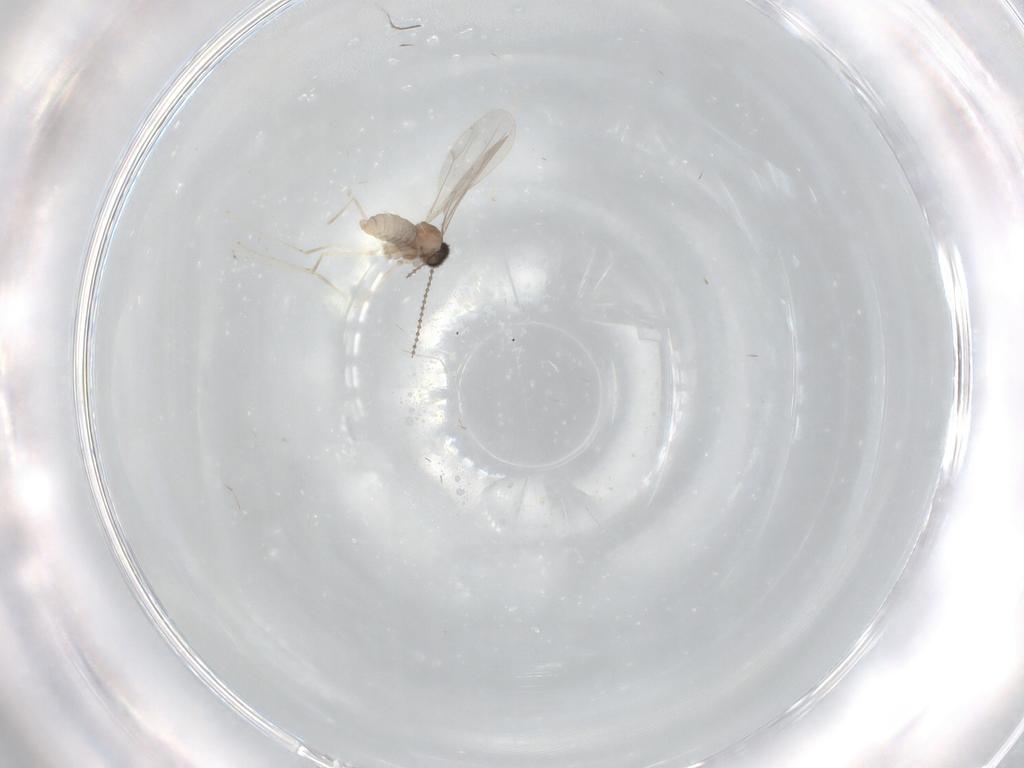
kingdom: Animalia
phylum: Arthropoda
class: Insecta
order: Diptera
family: Cecidomyiidae
